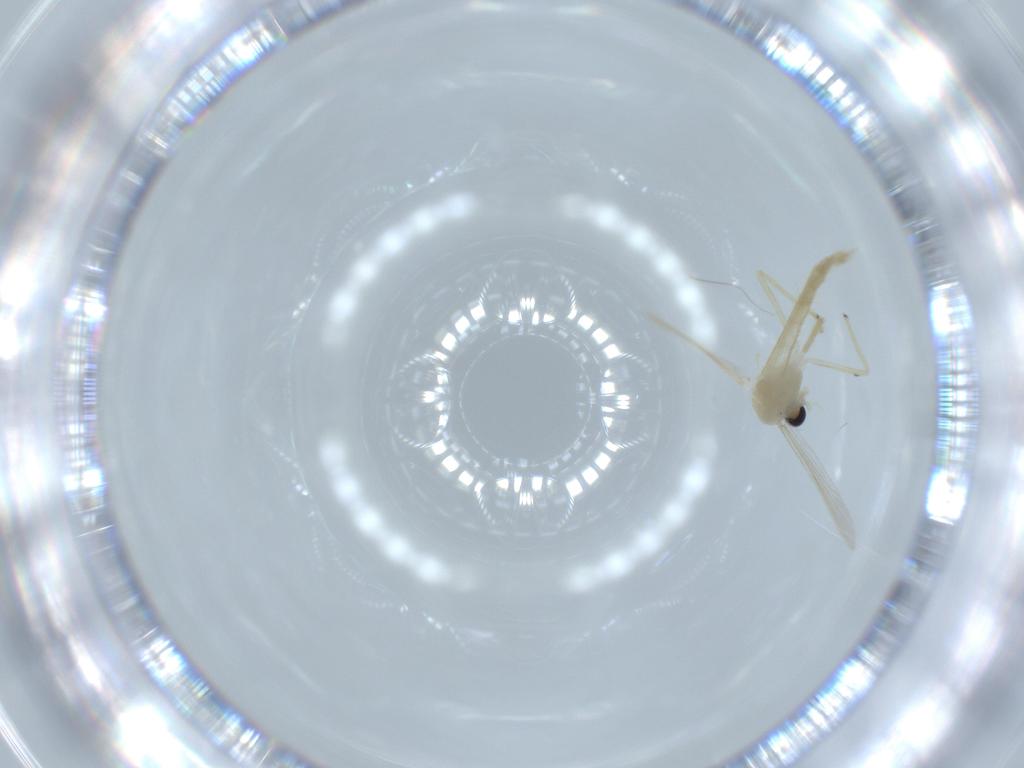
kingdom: Animalia
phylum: Arthropoda
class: Insecta
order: Diptera
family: Chironomidae
